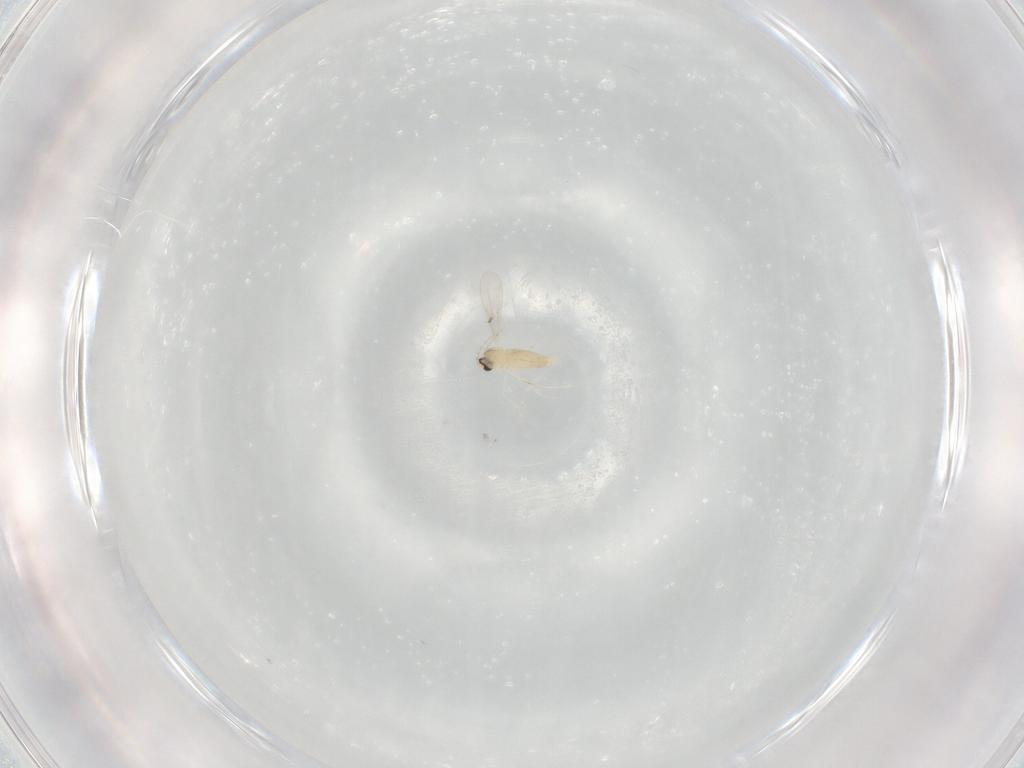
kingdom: Animalia
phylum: Arthropoda
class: Insecta
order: Diptera
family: Cecidomyiidae
